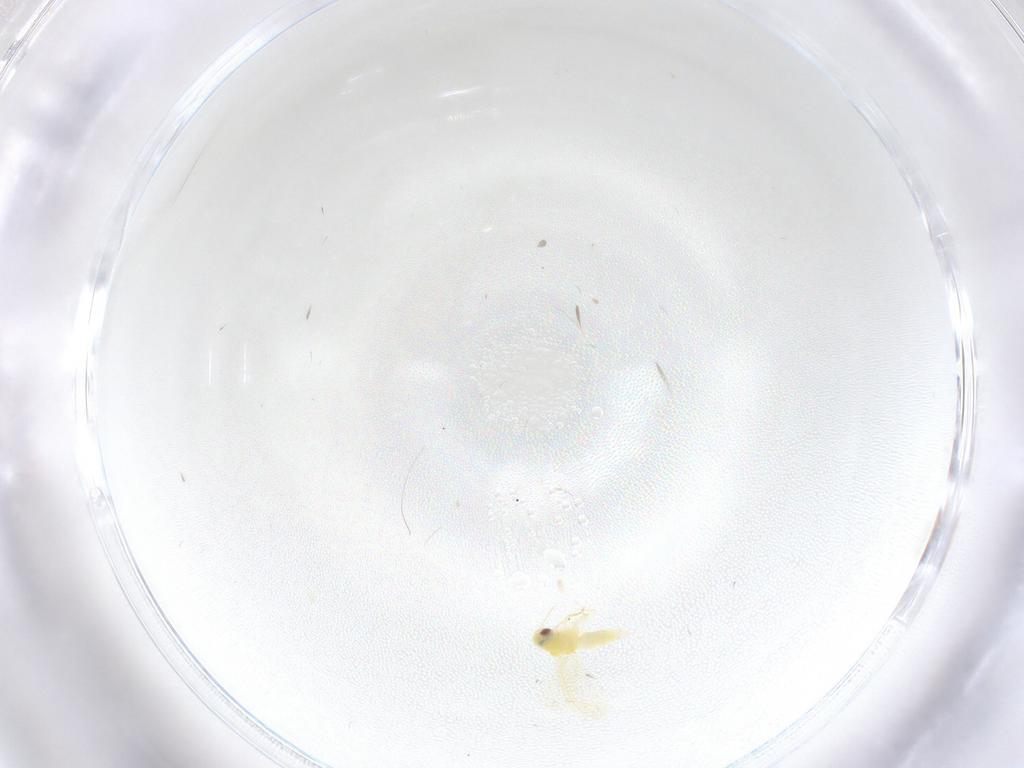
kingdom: Animalia
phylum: Arthropoda
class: Insecta
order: Hemiptera
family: Aleyrodidae
